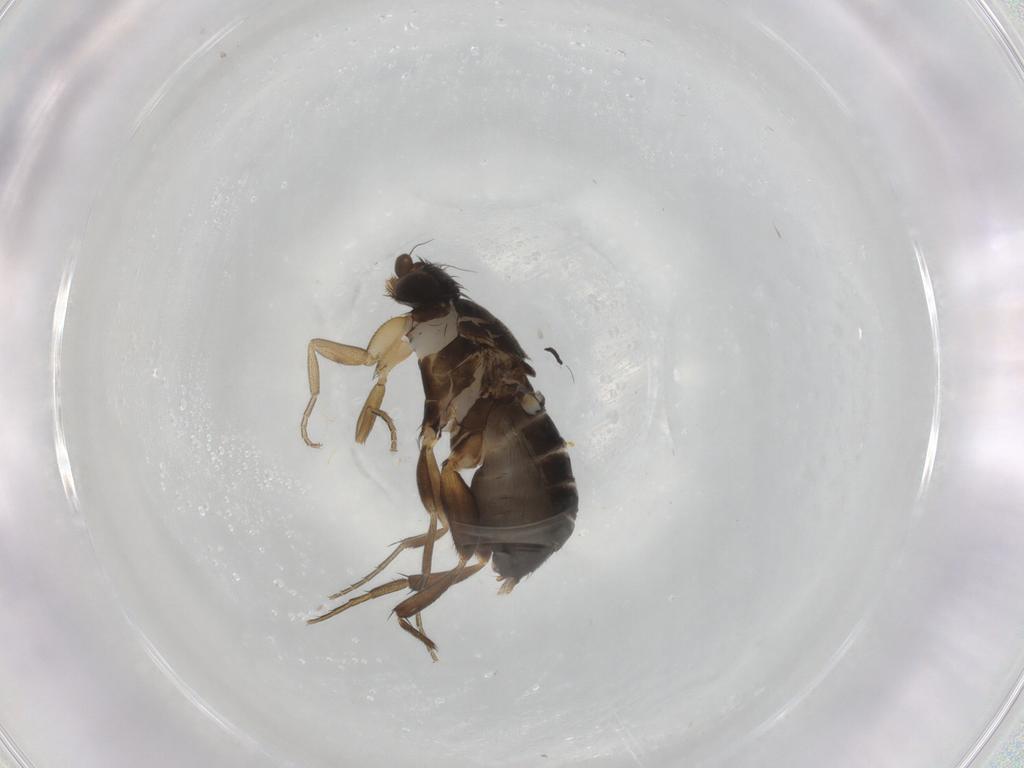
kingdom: Animalia
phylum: Arthropoda
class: Insecta
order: Diptera
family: Phoridae
